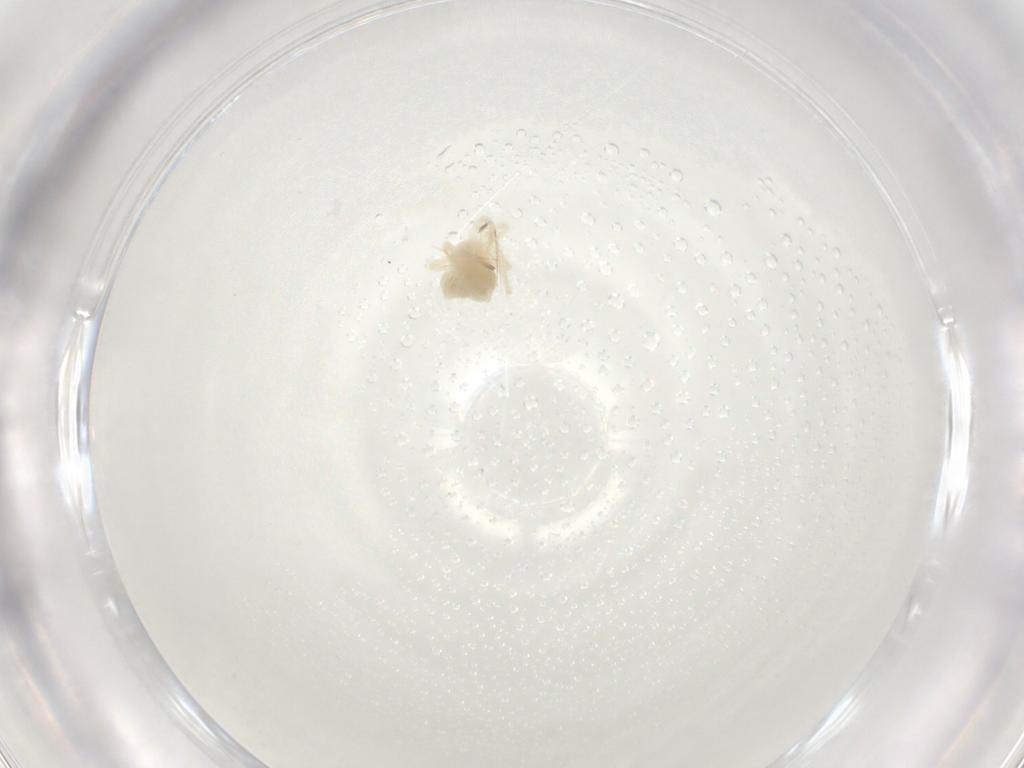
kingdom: Animalia
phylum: Arthropoda
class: Arachnida
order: Trombidiformes
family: Anystidae
